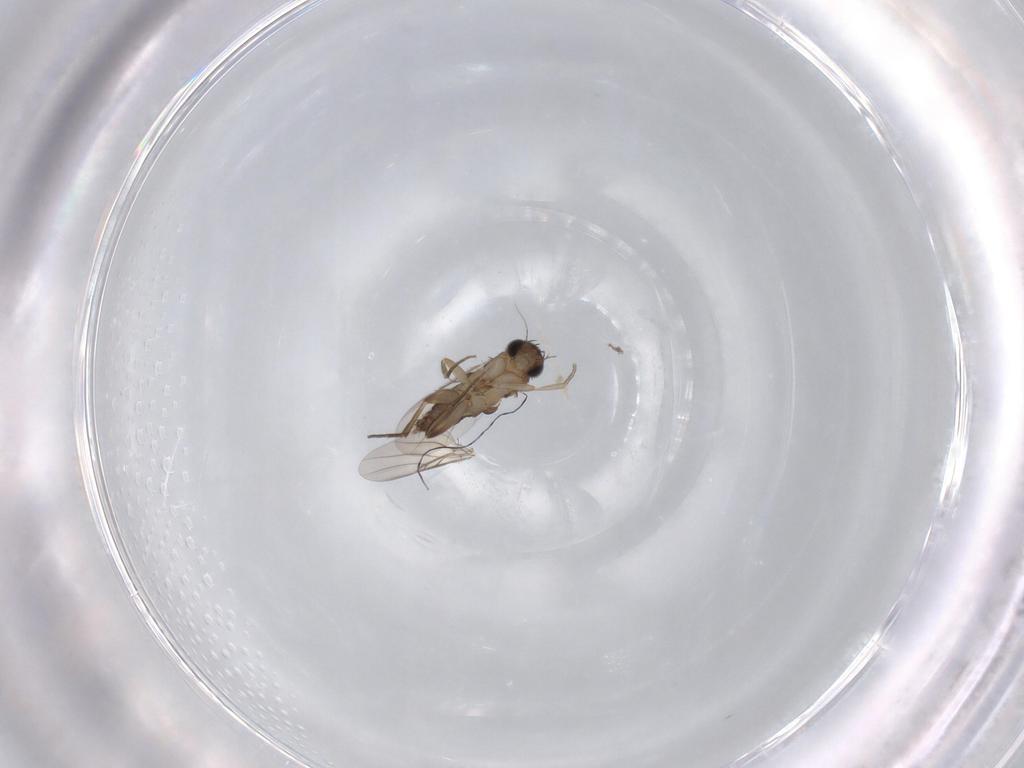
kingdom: Animalia
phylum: Arthropoda
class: Insecta
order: Diptera
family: Phoridae
